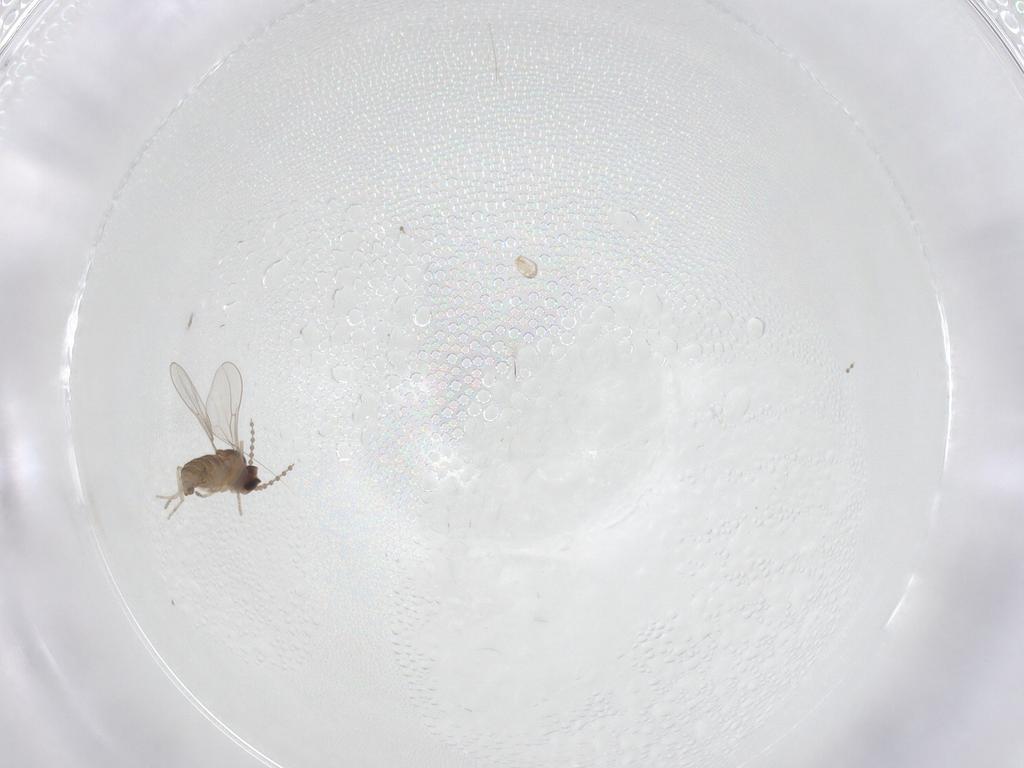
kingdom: Animalia
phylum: Arthropoda
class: Insecta
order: Diptera
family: Cecidomyiidae
